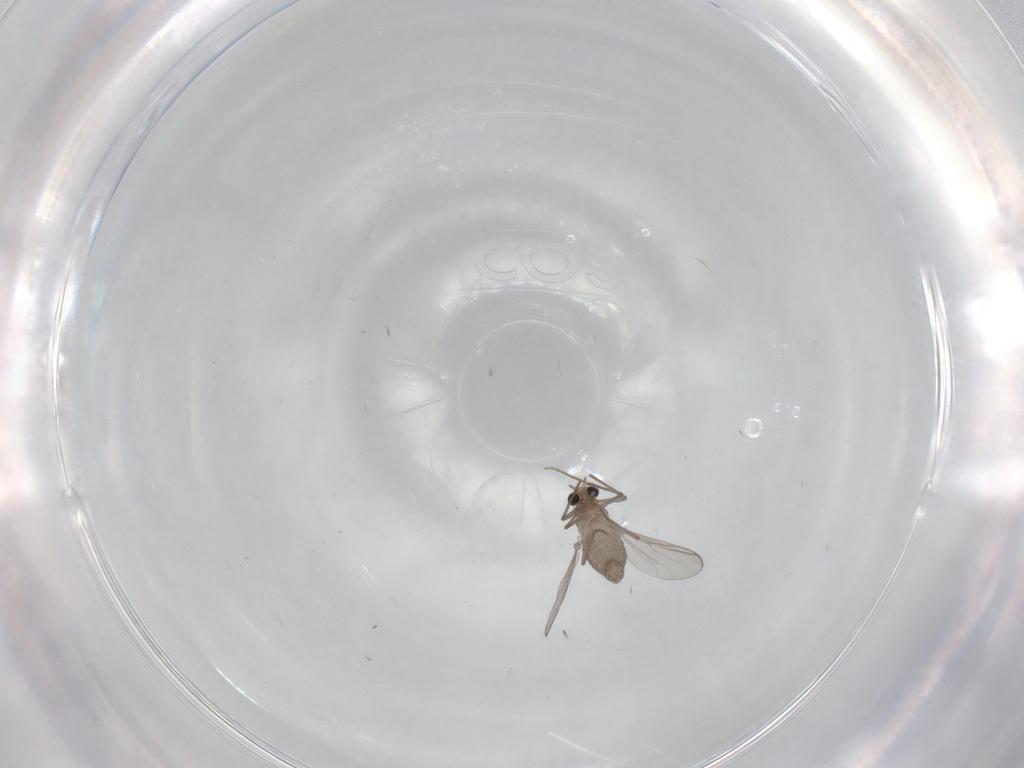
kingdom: Animalia
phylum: Arthropoda
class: Insecta
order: Diptera
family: Chironomidae
